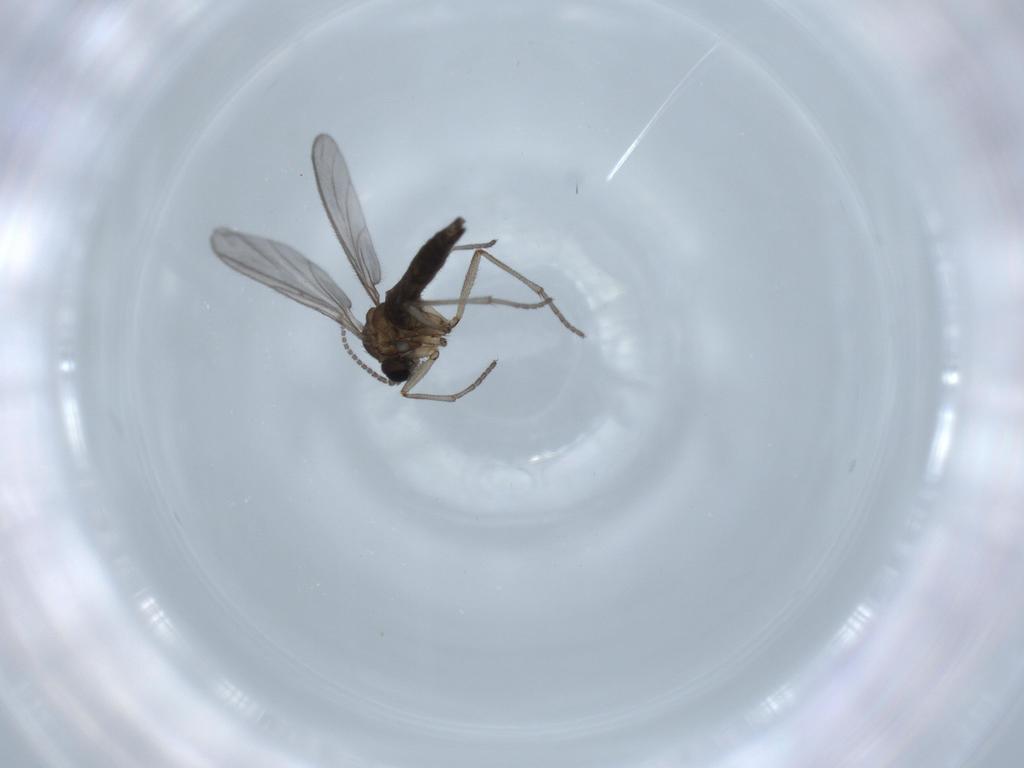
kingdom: Animalia
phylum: Arthropoda
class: Insecta
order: Diptera
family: Sciaridae
